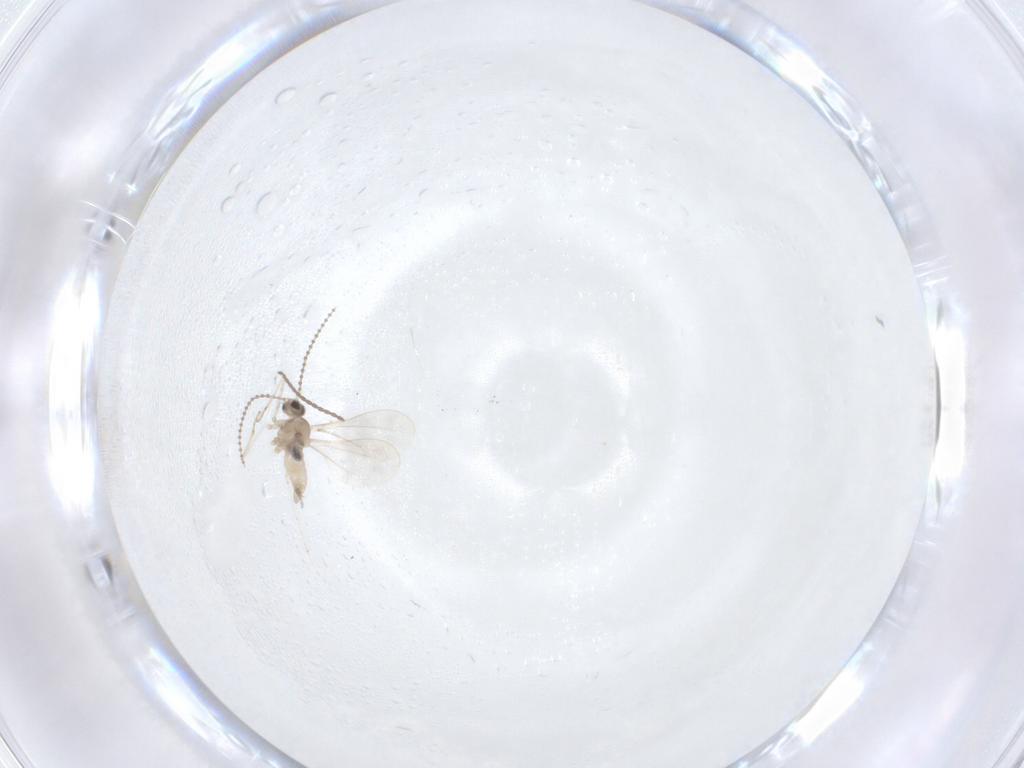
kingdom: Animalia
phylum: Arthropoda
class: Insecta
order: Diptera
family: Cecidomyiidae
